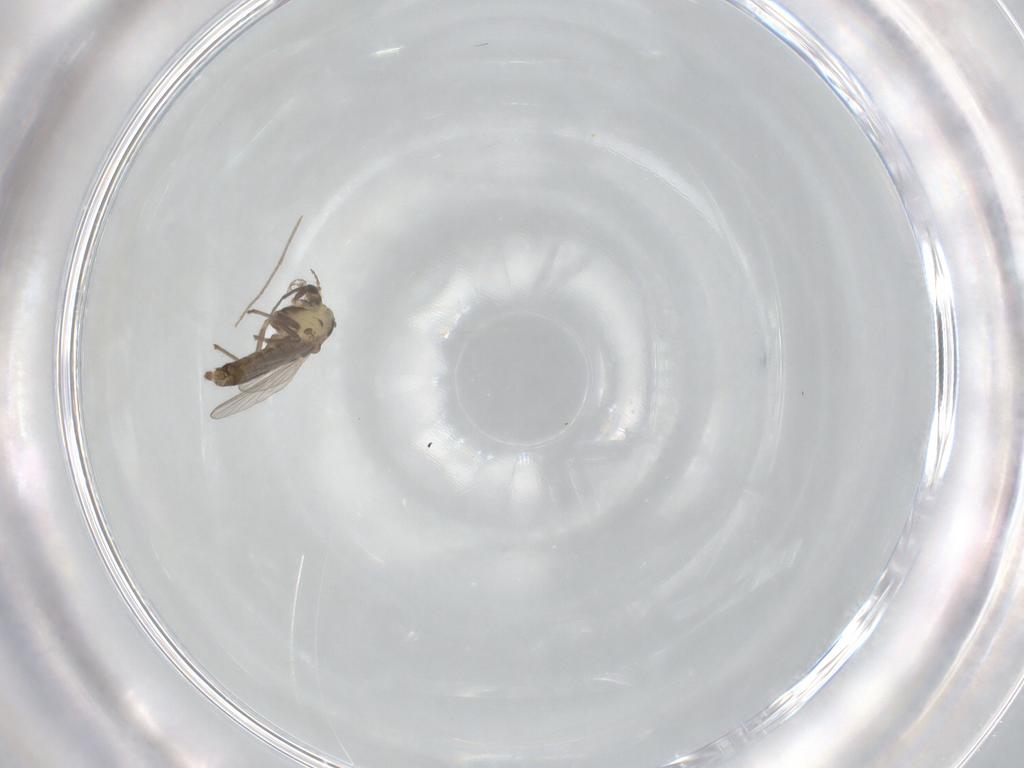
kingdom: Animalia
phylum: Arthropoda
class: Insecta
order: Diptera
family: Chironomidae
